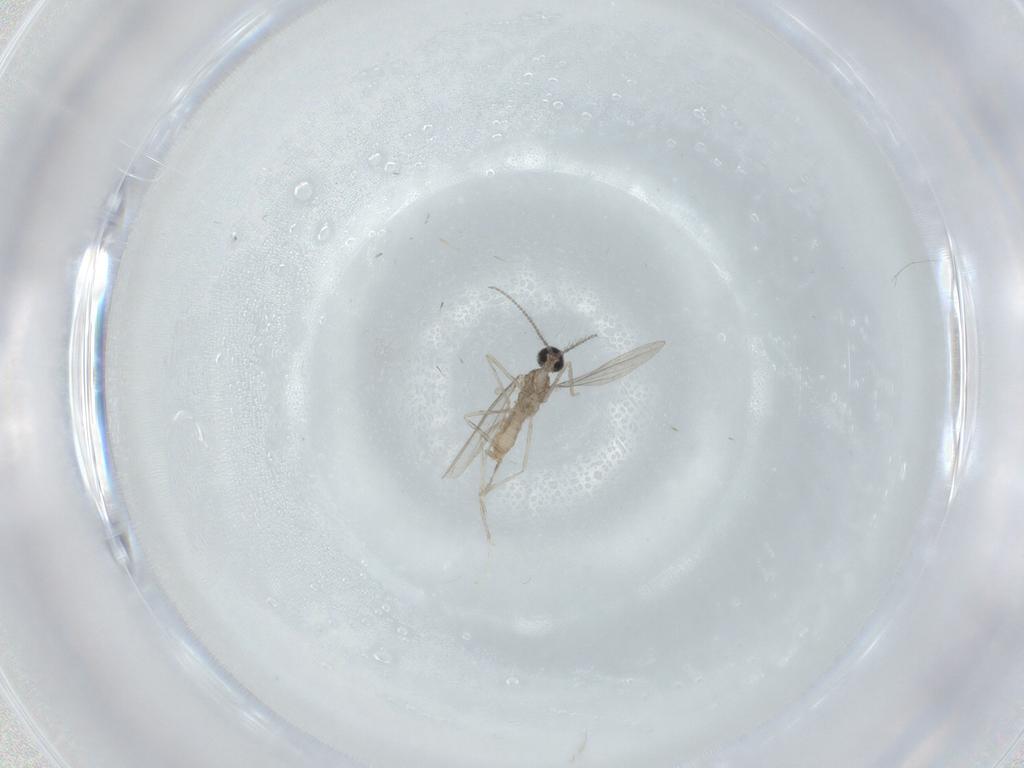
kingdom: Animalia
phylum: Arthropoda
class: Insecta
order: Diptera
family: Cecidomyiidae
